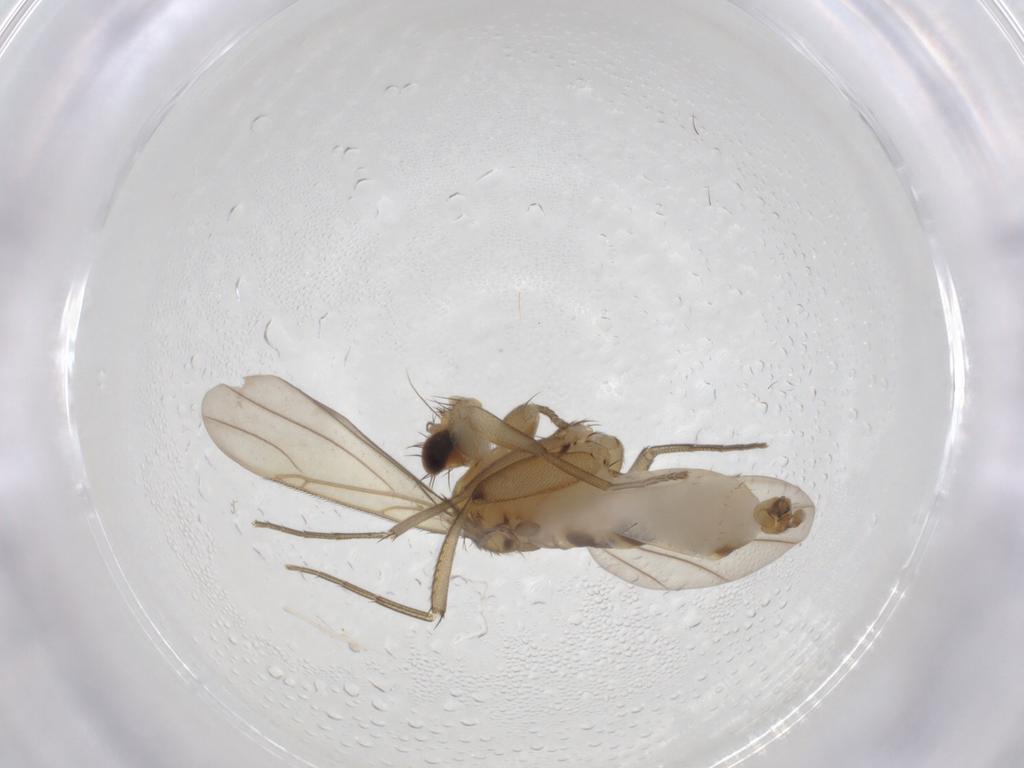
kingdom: Animalia
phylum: Arthropoda
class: Insecta
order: Diptera
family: Phoridae
